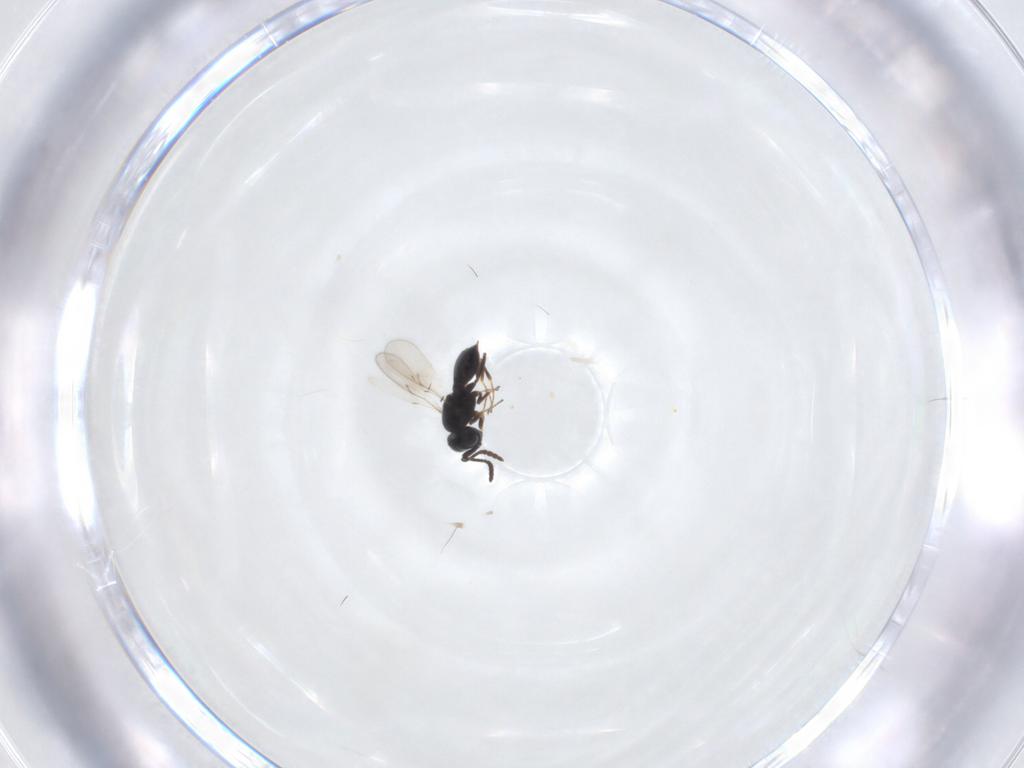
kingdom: Animalia
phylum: Arthropoda
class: Insecta
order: Hymenoptera
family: Scelionidae
